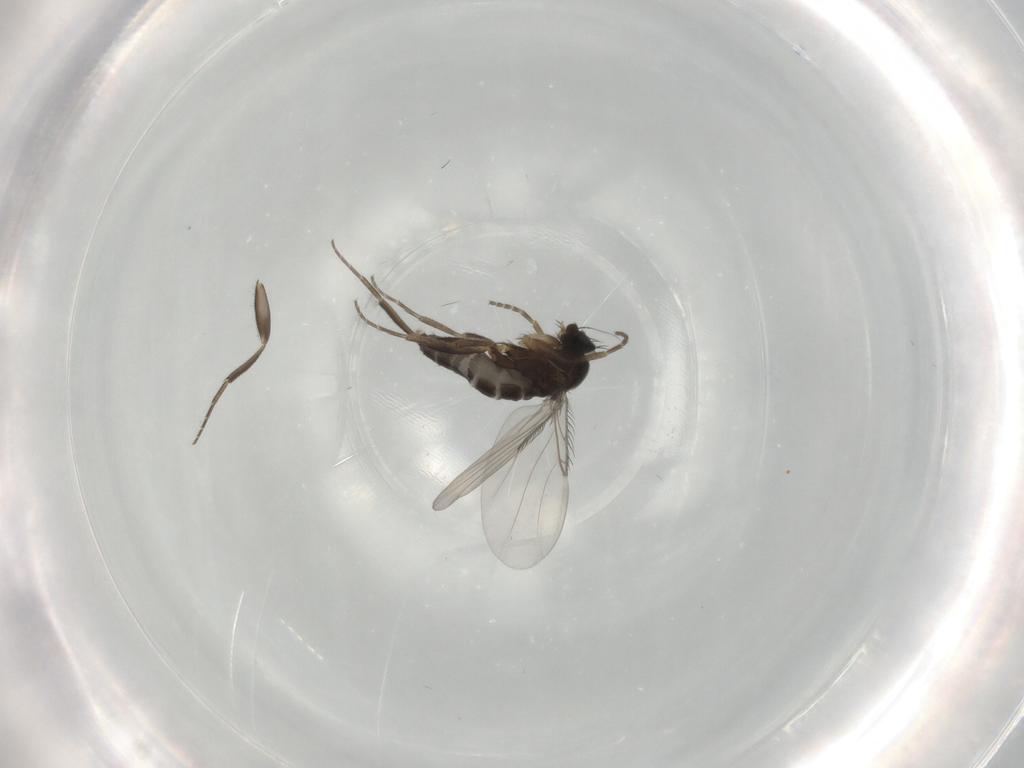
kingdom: Animalia
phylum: Arthropoda
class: Insecta
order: Diptera
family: Phoridae
